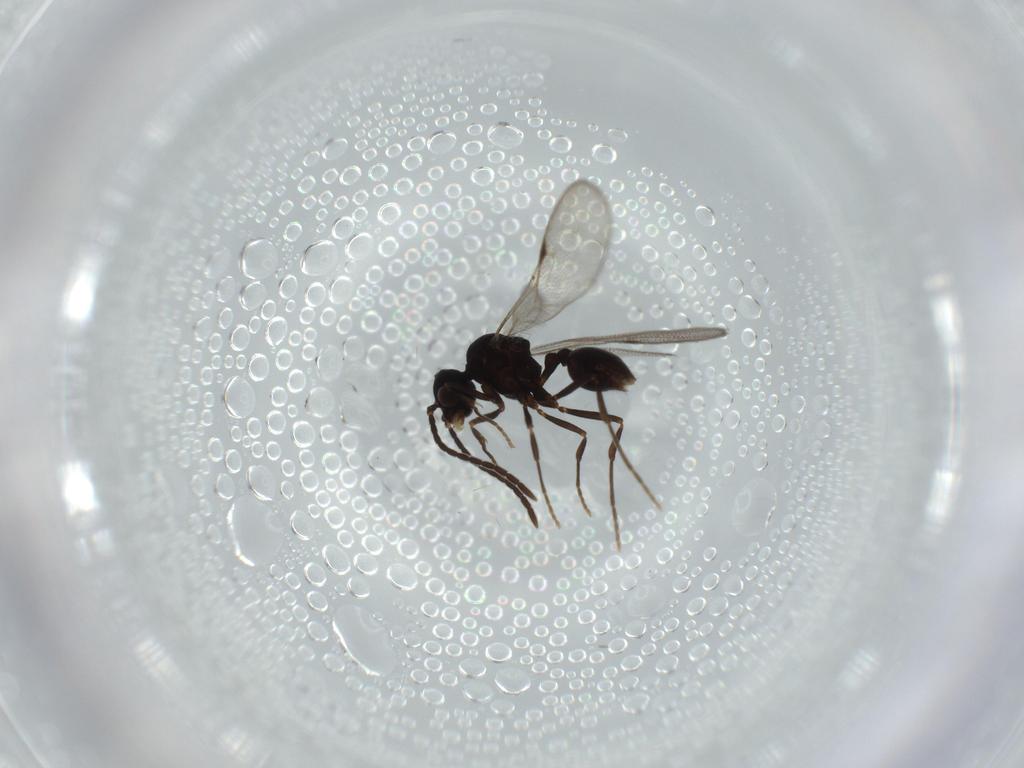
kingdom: Animalia
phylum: Arthropoda
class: Insecta
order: Hymenoptera
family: Formicidae
